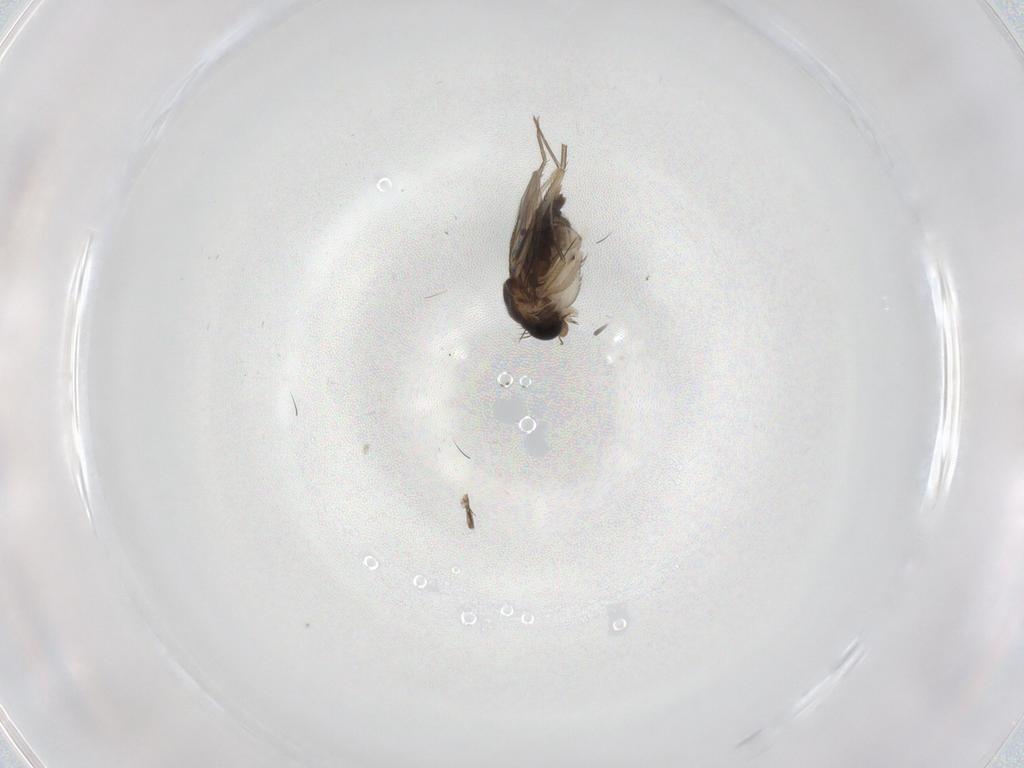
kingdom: Animalia
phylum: Arthropoda
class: Insecta
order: Diptera
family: Phoridae
